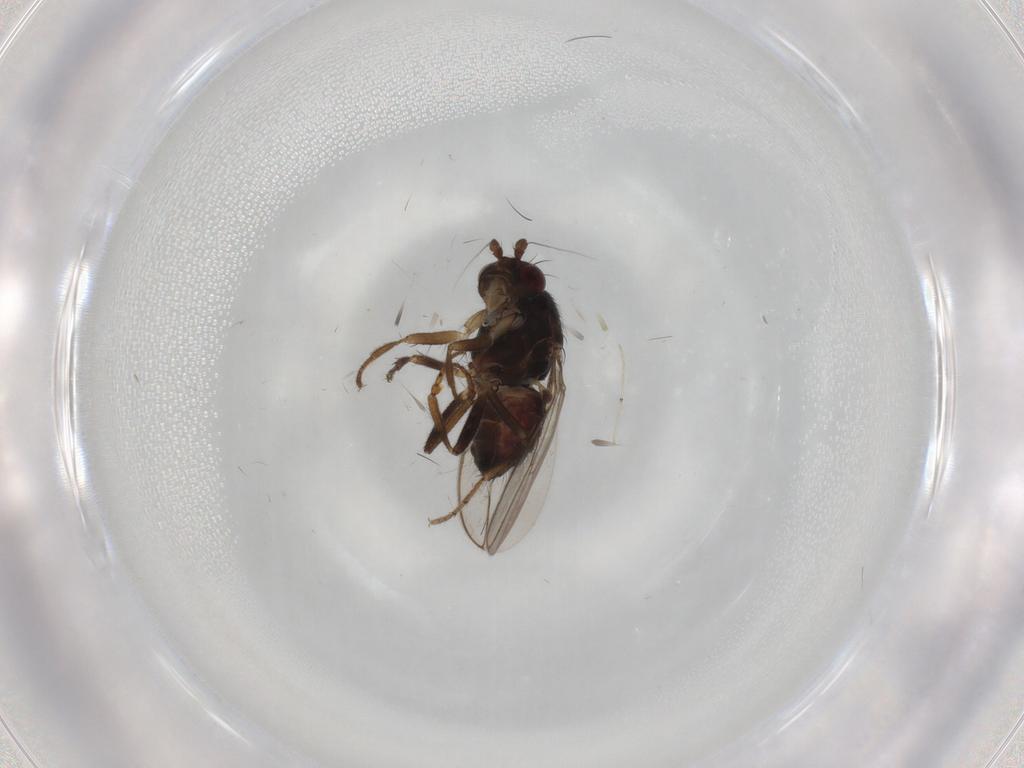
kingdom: Animalia
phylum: Arthropoda
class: Insecta
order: Diptera
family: Sphaeroceridae
